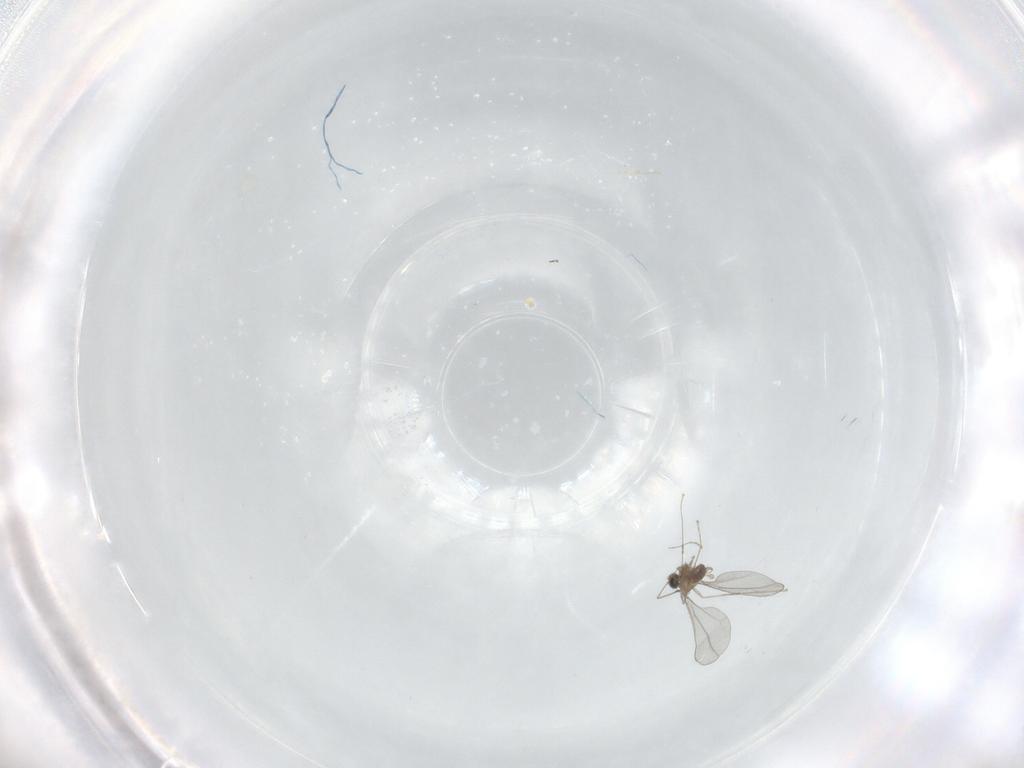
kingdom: Animalia
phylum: Arthropoda
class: Insecta
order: Diptera
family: Cecidomyiidae
